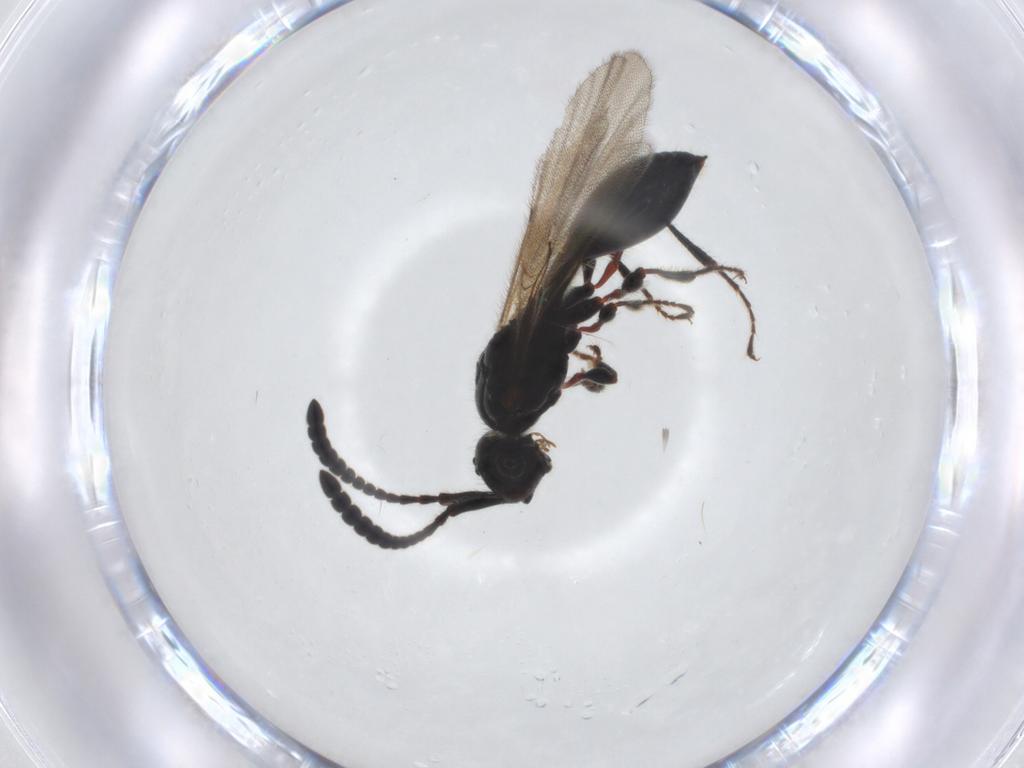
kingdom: Animalia
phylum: Arthropoda
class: Insecta
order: Hymenoptera
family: Diapriidae
